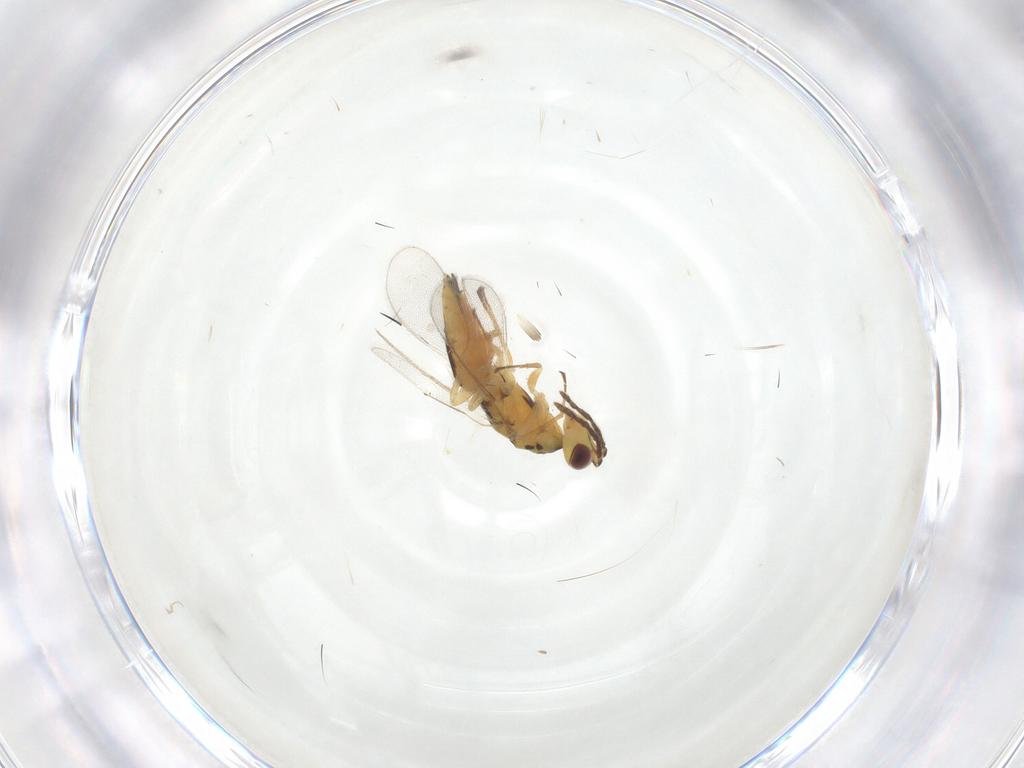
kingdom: Animalia
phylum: Arthropoda
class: Insecta
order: Hymenoptera
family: Eulophidae
